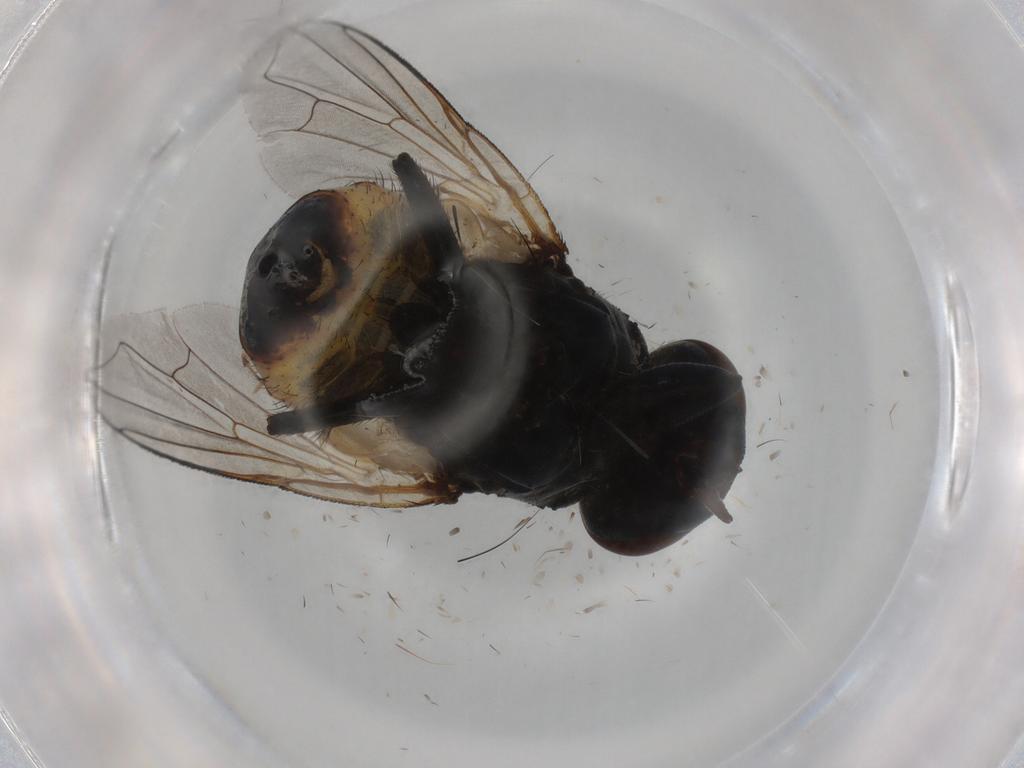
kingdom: Animalia
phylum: Arthropoda
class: Insecta
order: Diptera
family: Muscidae
